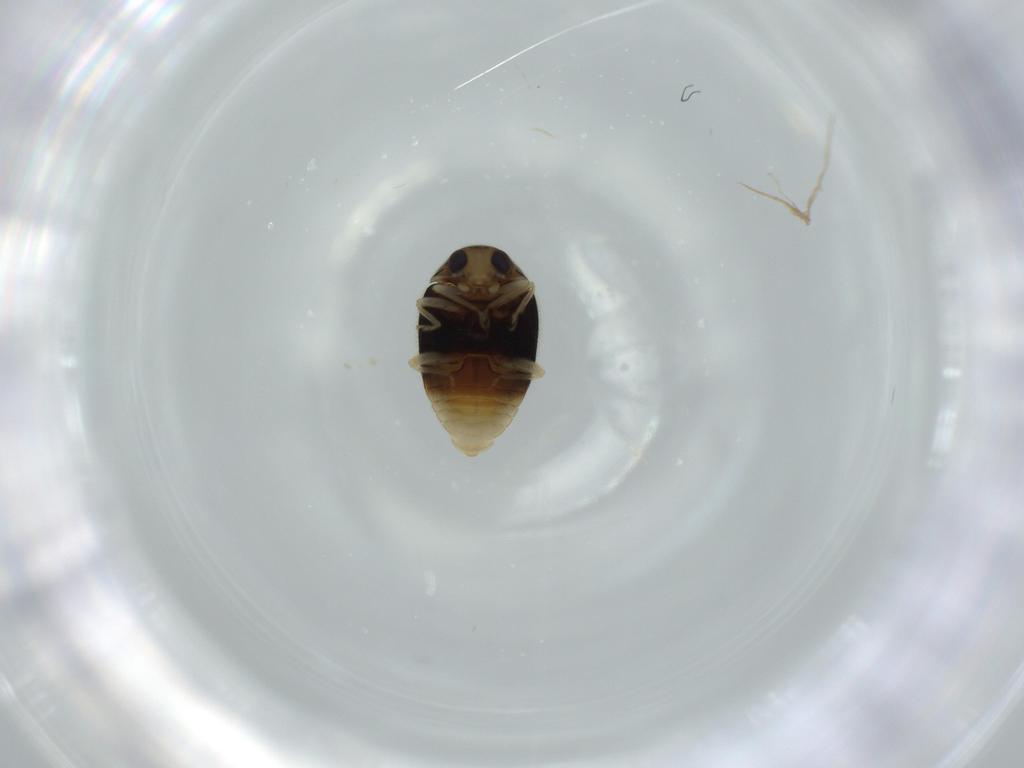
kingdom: Animalia
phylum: Arthropoda
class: Insecta
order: Coleoptera
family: Coccinellidae
